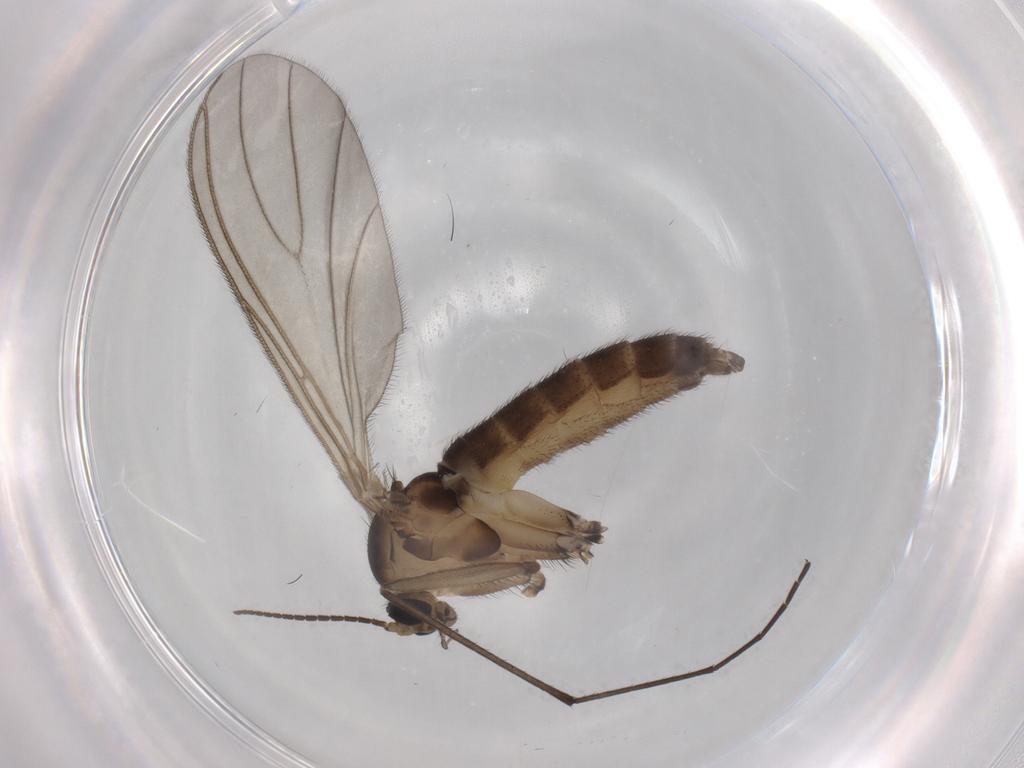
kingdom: Animalia
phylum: Arthropoda
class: Insecta
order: Diptera
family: Sciaridae
